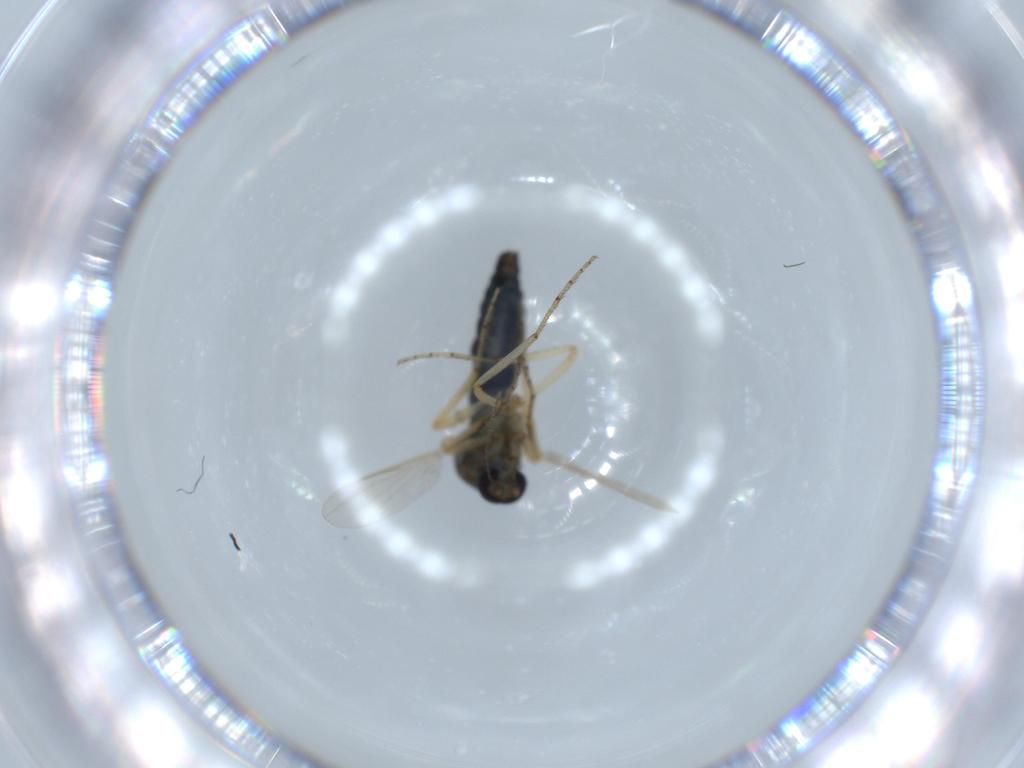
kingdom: Animalia
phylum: Arthropoda
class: Insecta
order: Diptera
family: Ceratopogonidae
